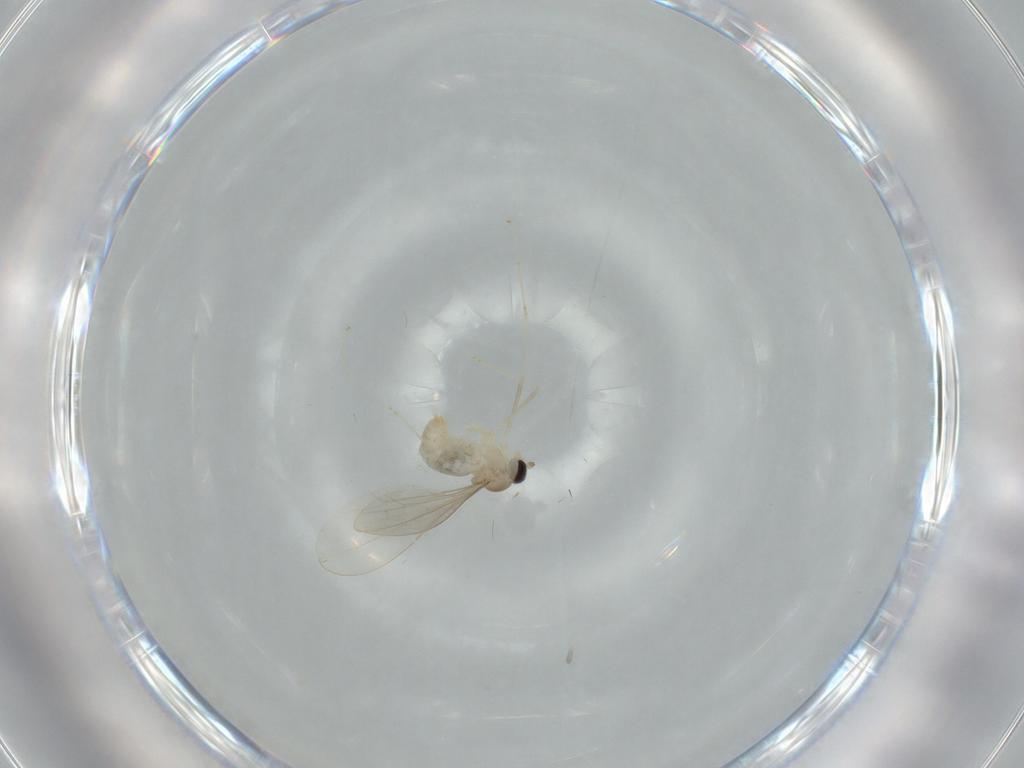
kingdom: Animalia
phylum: Arthropoda
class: Insecta
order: Diptera
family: Cecidomyiidae
